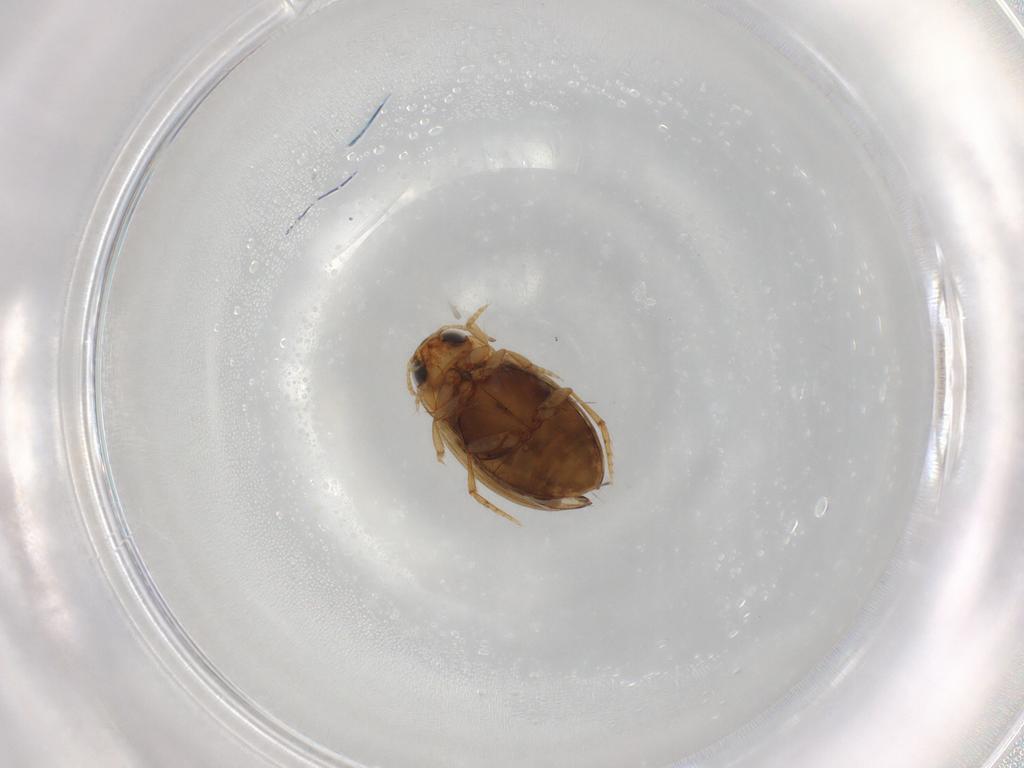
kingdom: Animalia
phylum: Arthropoda
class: Insecta
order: Coleoptera
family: Dytiscidae
